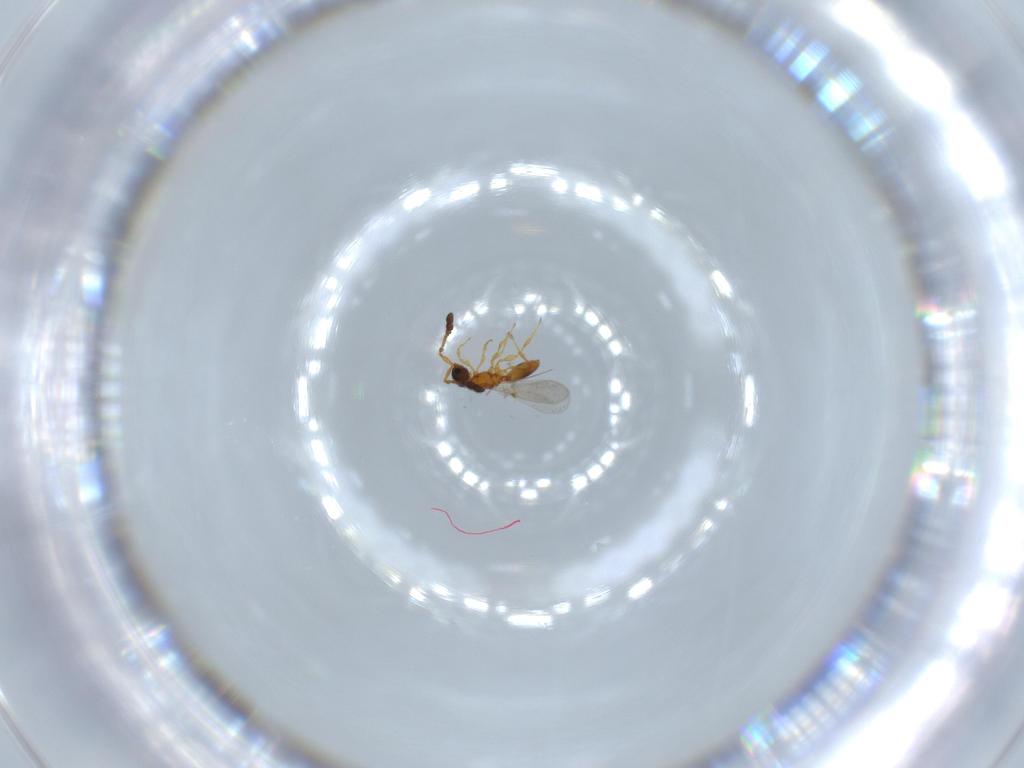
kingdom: Animalia
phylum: Arthropoda
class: Insecta
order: Hymenoptera
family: Diapriidae
